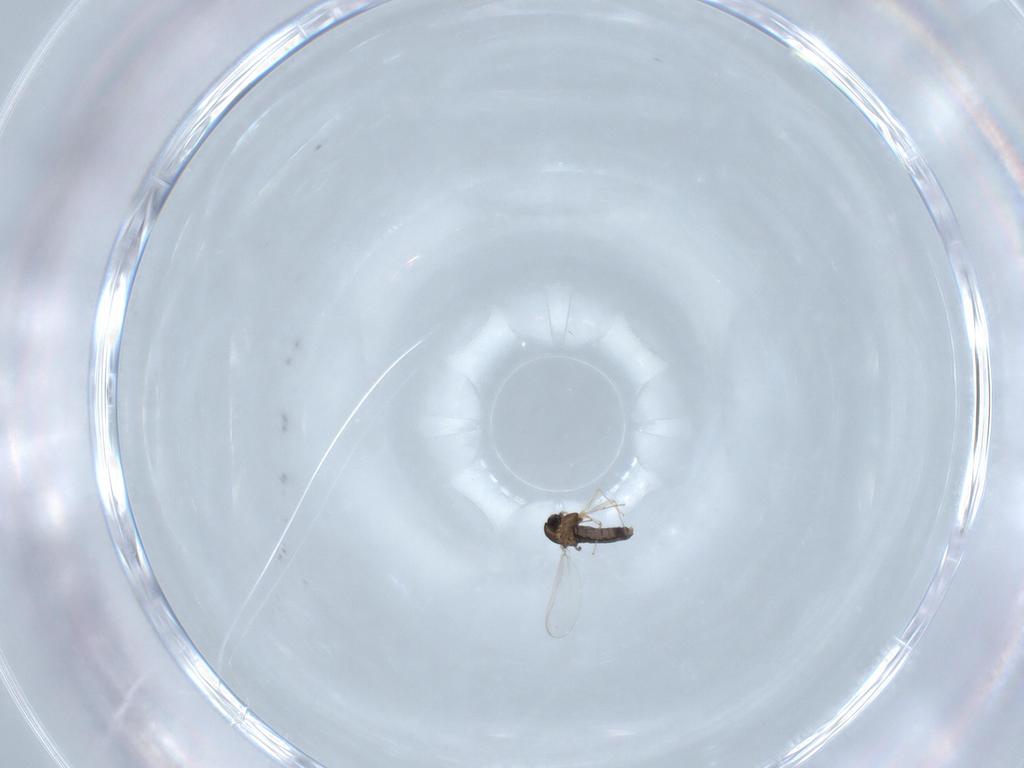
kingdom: Animalia
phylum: Arthropoda
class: Insecta
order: Diptera
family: Chironomidae
